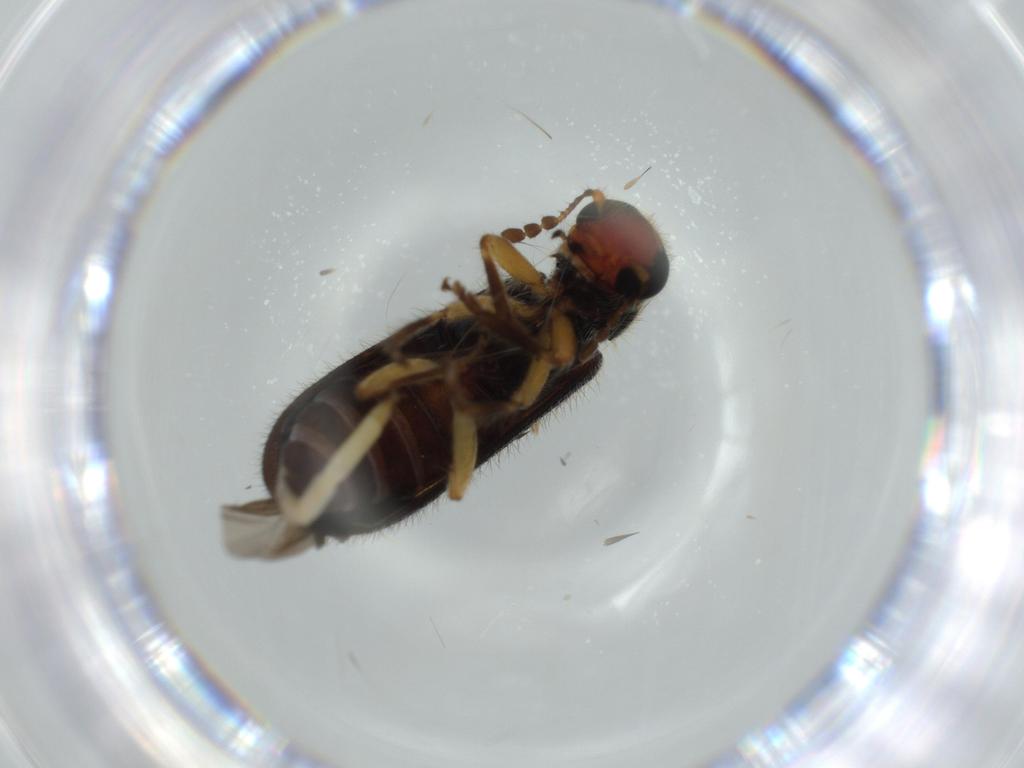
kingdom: Animalia
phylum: Arthropoda
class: Insecta
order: Coleoptera
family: Cleridae
